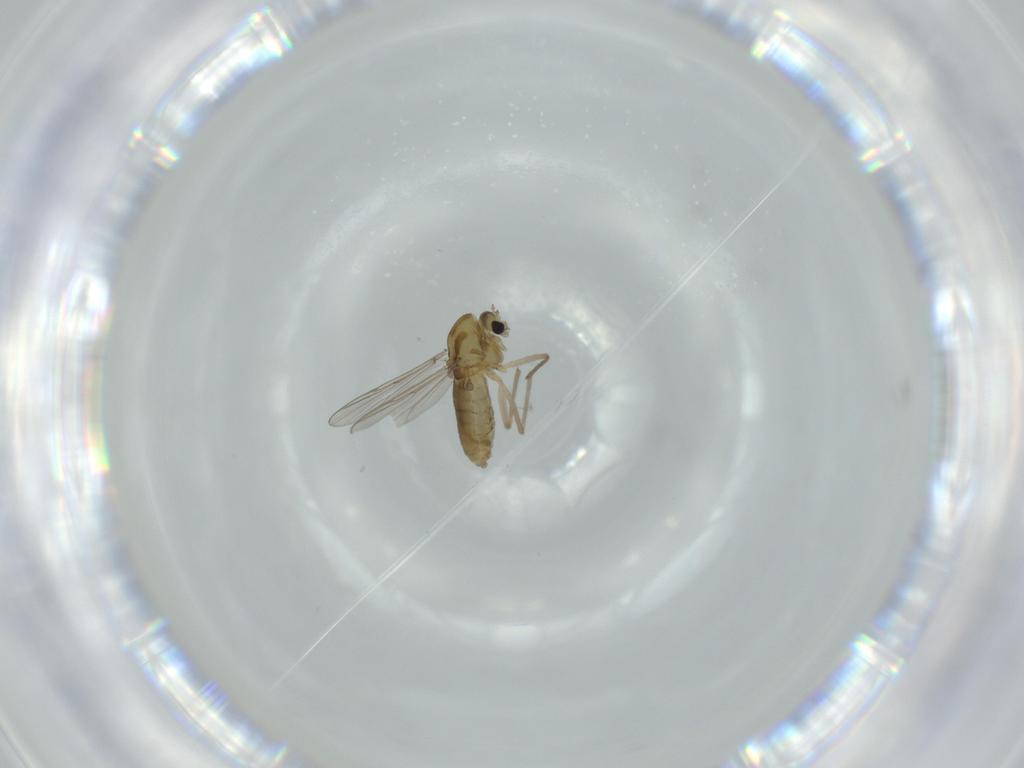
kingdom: Animalia
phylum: Arthropoda
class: Insecta
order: Diptera
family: Chironomidae
